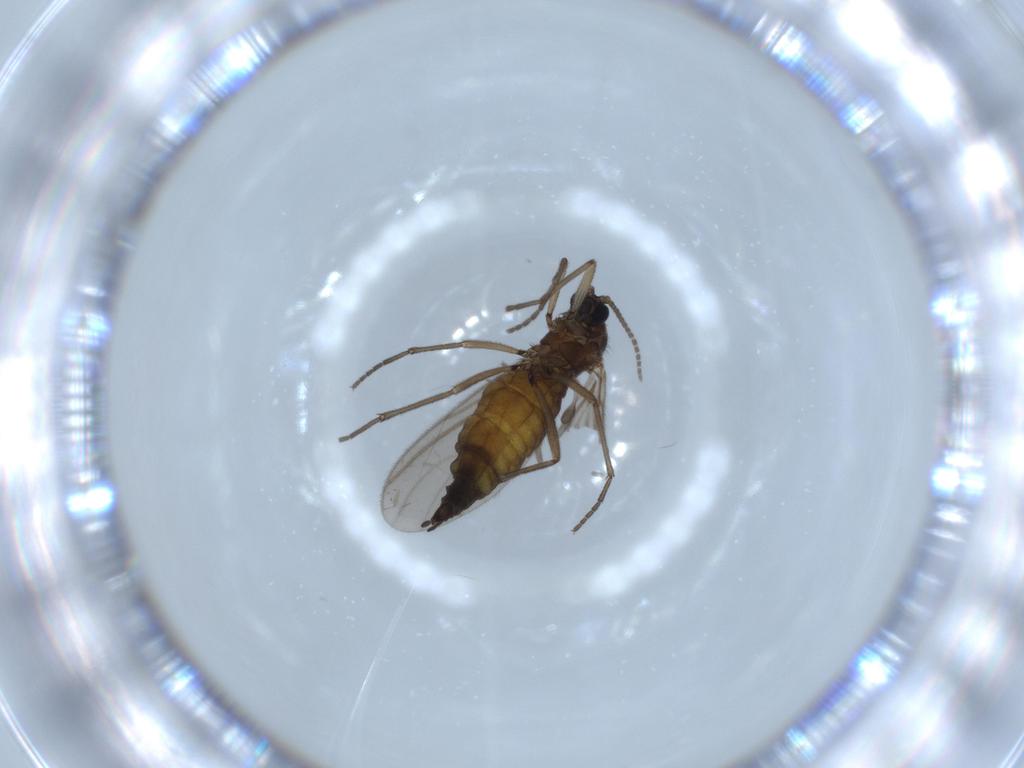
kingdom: Animalia
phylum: Arthropoda
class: Insecta
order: Diptera
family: Sciaridae
